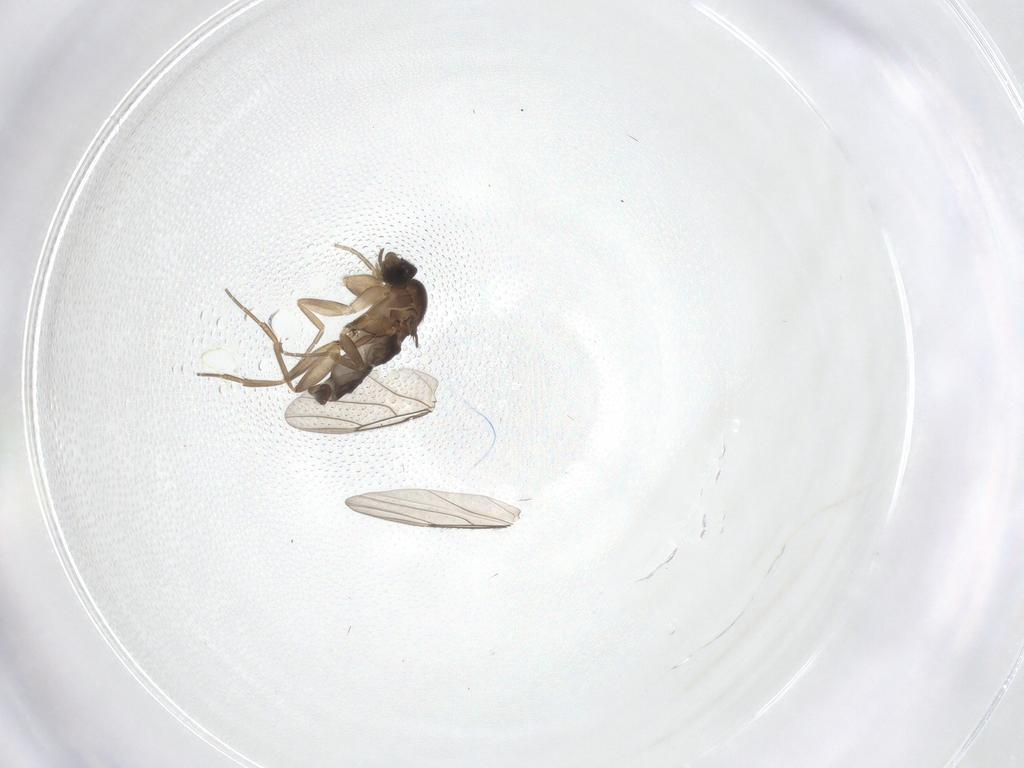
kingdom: Animalia
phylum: Arthropoda
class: Insecta
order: Diptera
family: Phoridae
